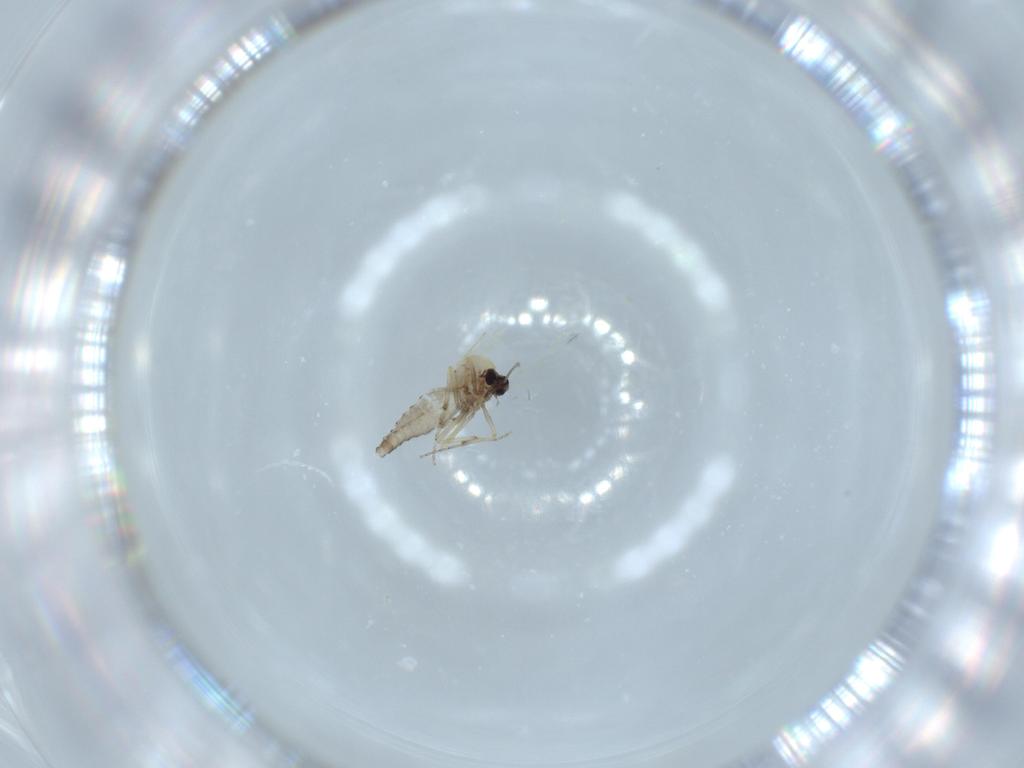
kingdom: Animalia
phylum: Arthropoda
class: Insecta
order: Diptera
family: Ceratopogonidae
